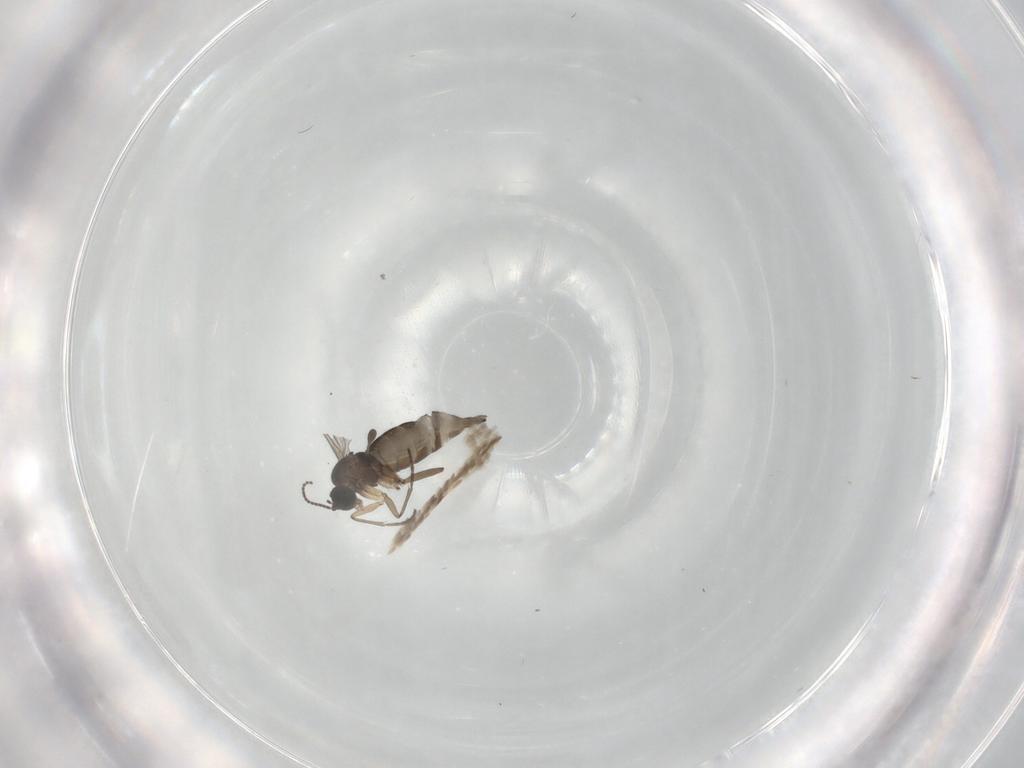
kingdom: Animalia
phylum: Arthropoda
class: Insecta
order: Diptera
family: Sciaridae
